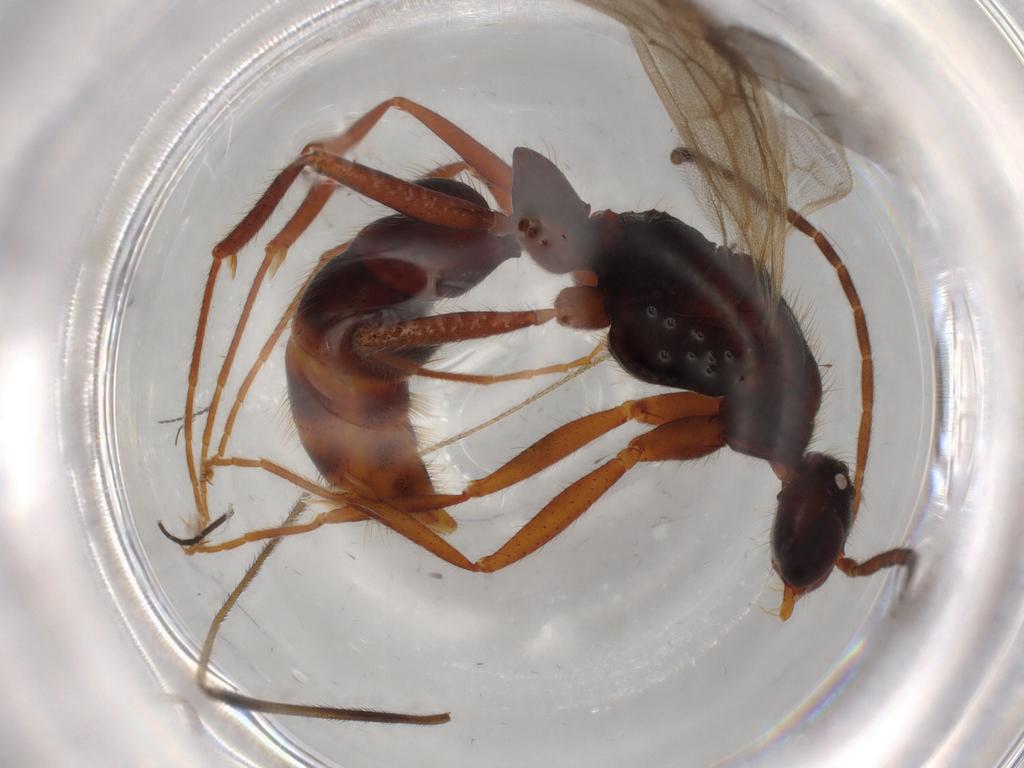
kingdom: Animalia
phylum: Arthropoda
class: Insecta
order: Hymenoptera
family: Formicidae
